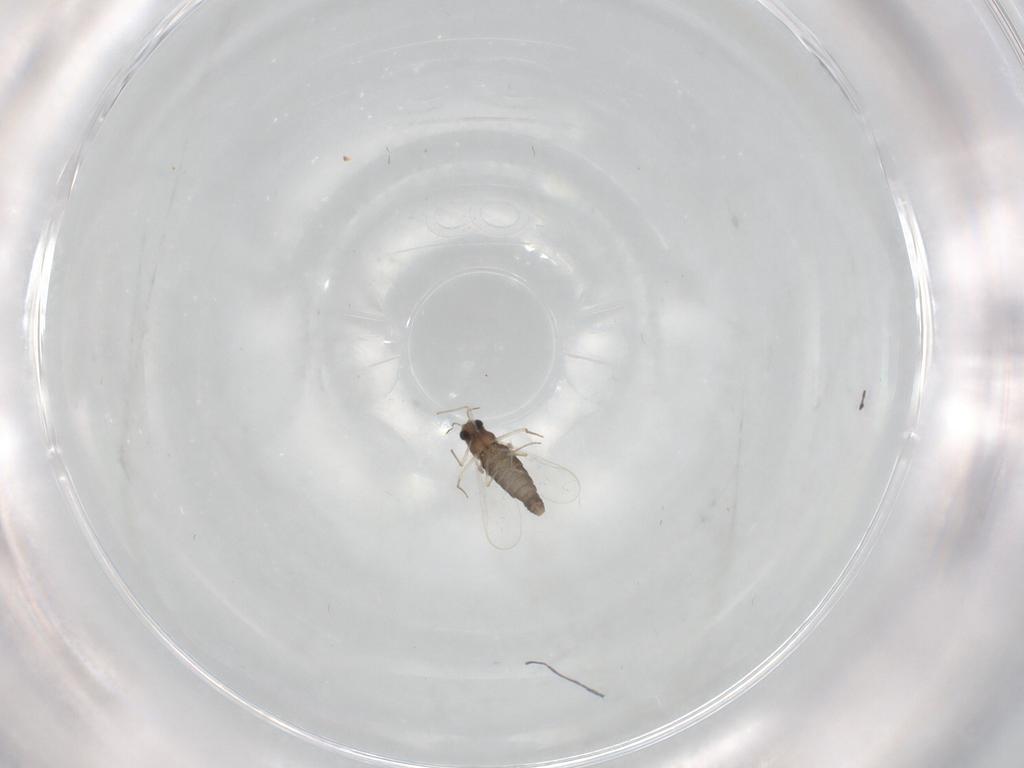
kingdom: Animalia
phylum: Arthropoda
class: Insecta
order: Diptera
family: Chironomidae
